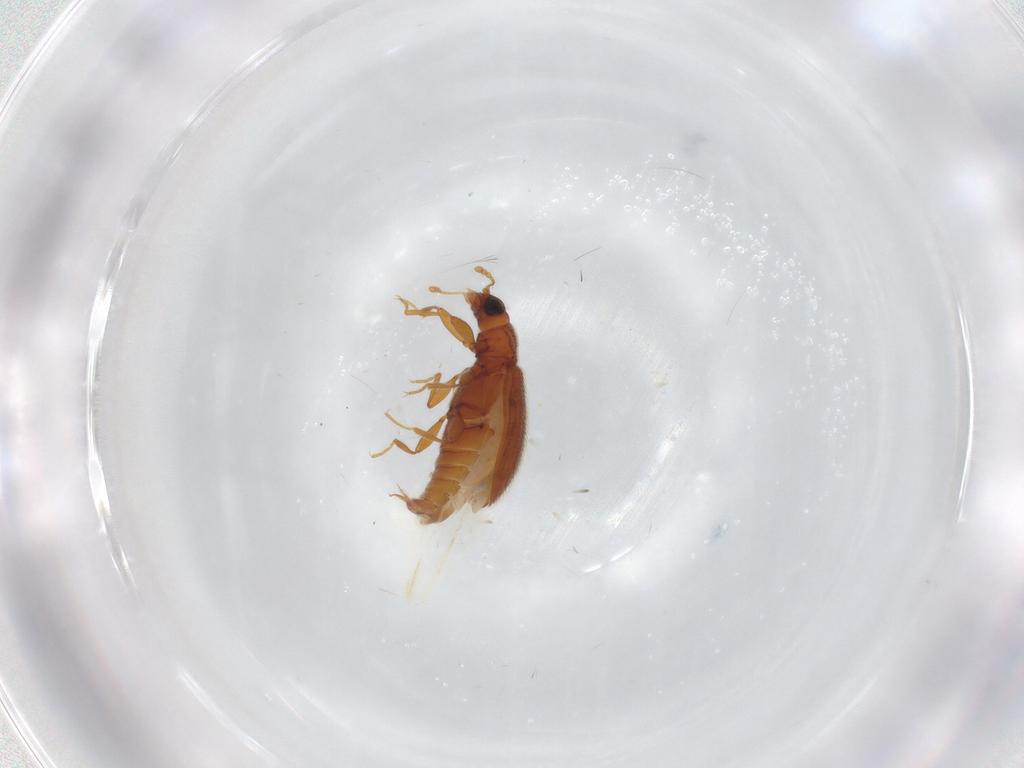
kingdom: Animalia
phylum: Arthropoda
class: Insecta
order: Coleoptera
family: Latridiidae
